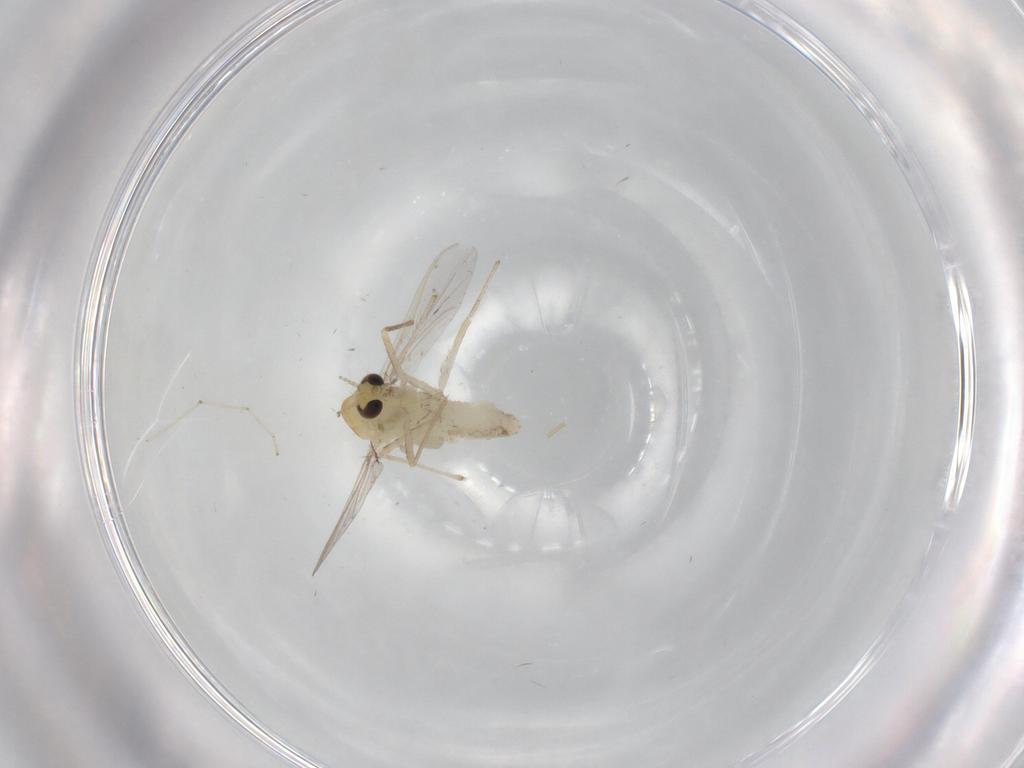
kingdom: Animalia
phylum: Arthropoda
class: Insecta
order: Diptera
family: Chironomidae
